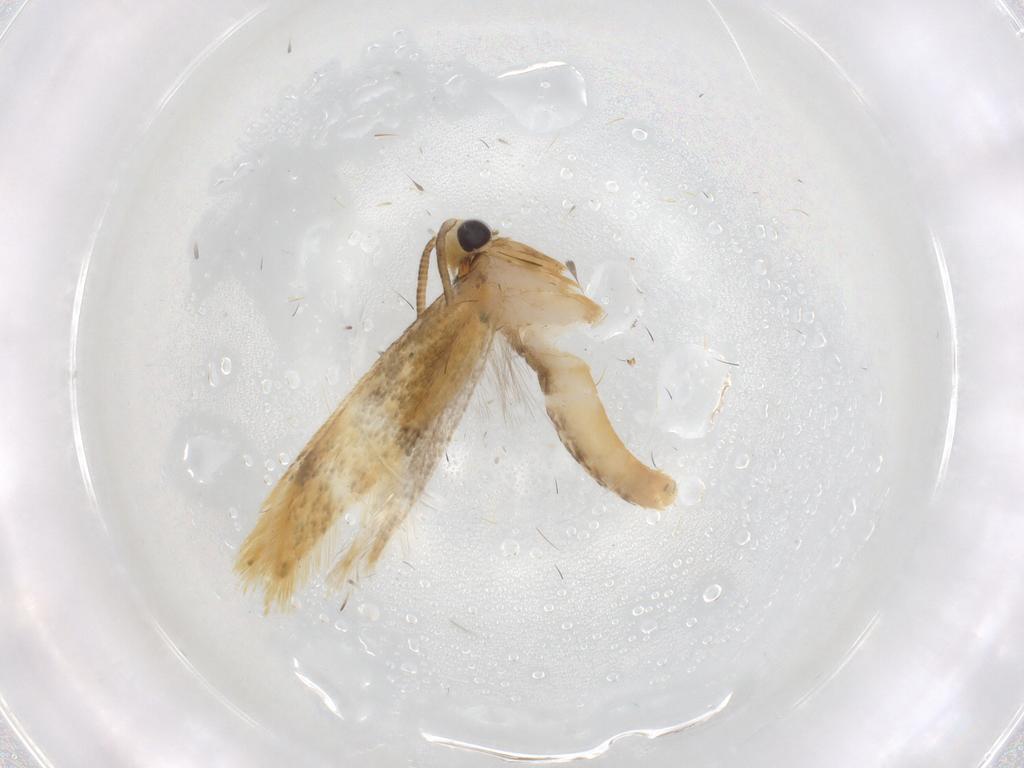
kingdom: Animalia
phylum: Arthropoda
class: Insecta
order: Lepidoptera
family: Tineidae
